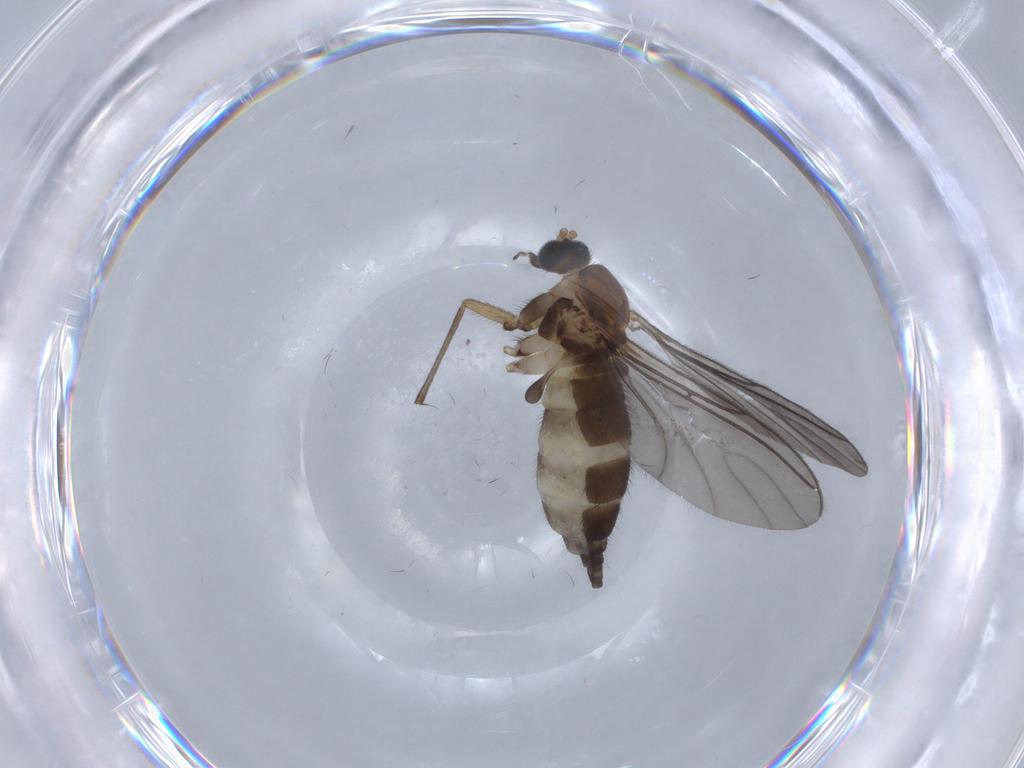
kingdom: Animalia
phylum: Arthropoda
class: Insecta
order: Diptera
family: Sciaridae
